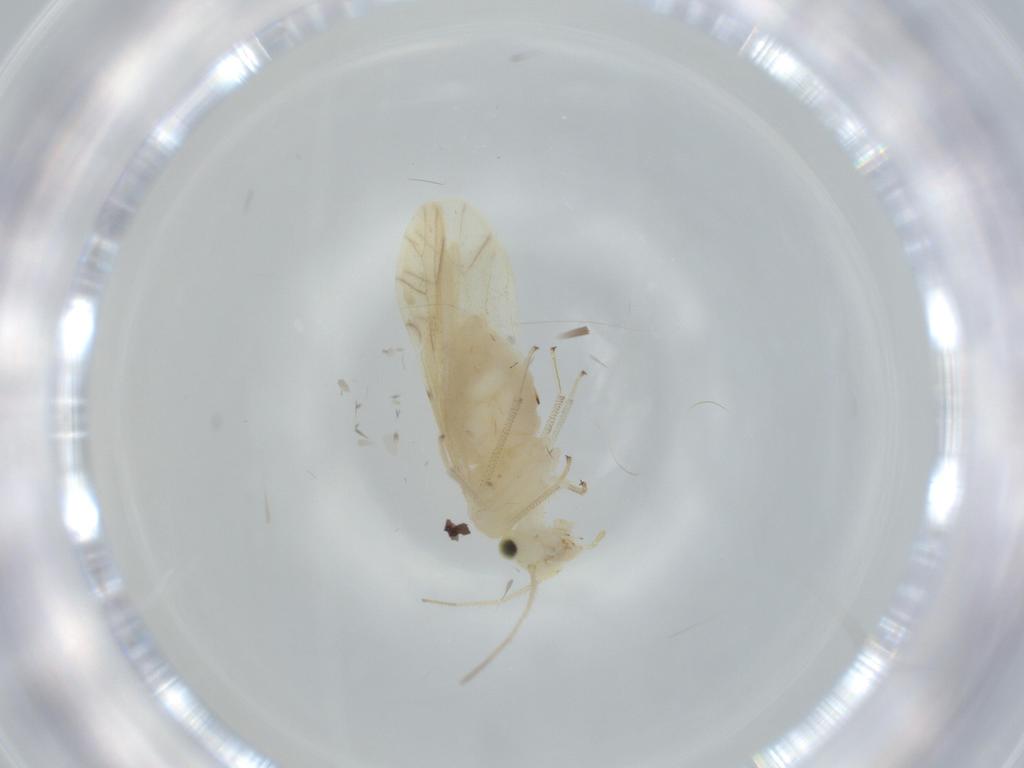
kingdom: Animalia
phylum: Arthropoda
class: Insecta
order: Psocodea
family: Caeciliusidae
